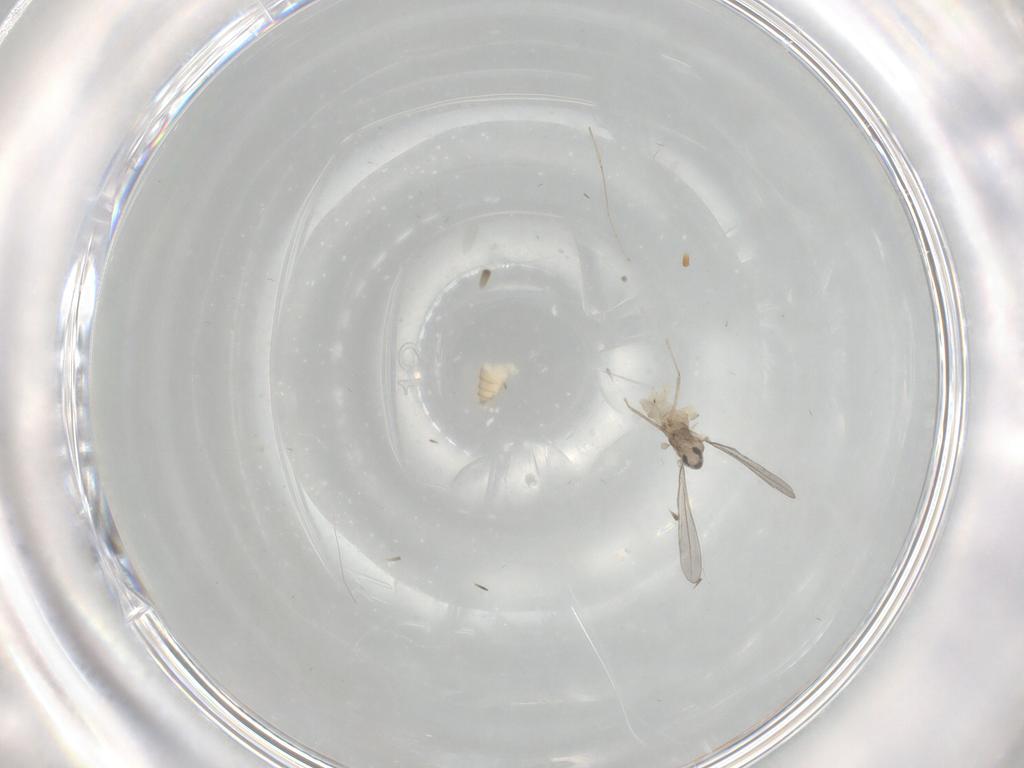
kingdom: Animalia
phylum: Arthropoda
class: Insecta
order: Diptera
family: Cecidomyiidae
